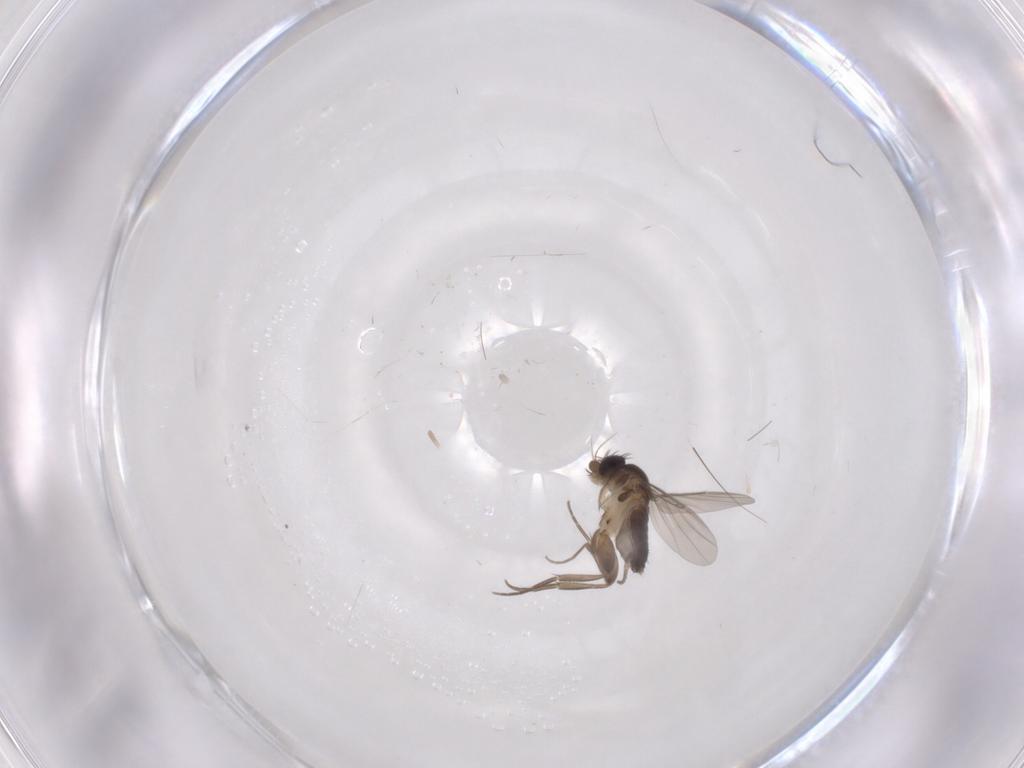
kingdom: Animalia
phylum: Arthropoda
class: Insecta
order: Diptera
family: Phoridae
